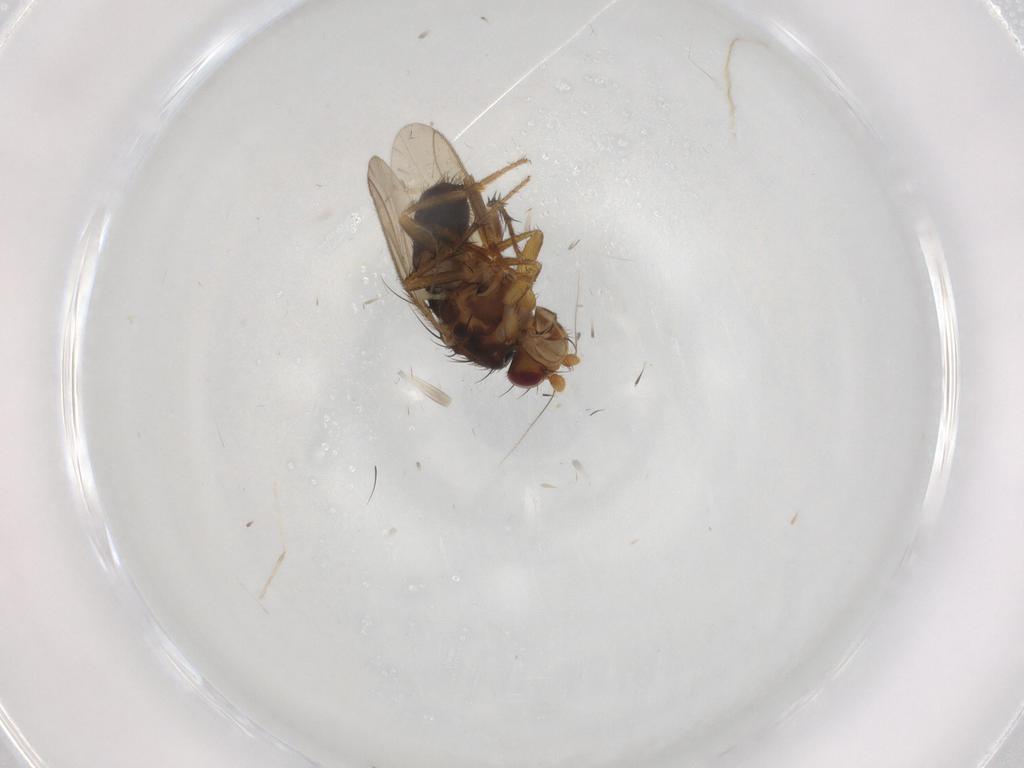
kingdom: Animalia
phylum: Arthropoda
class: Insecta
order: Diptera
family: Sphaeroceridae
